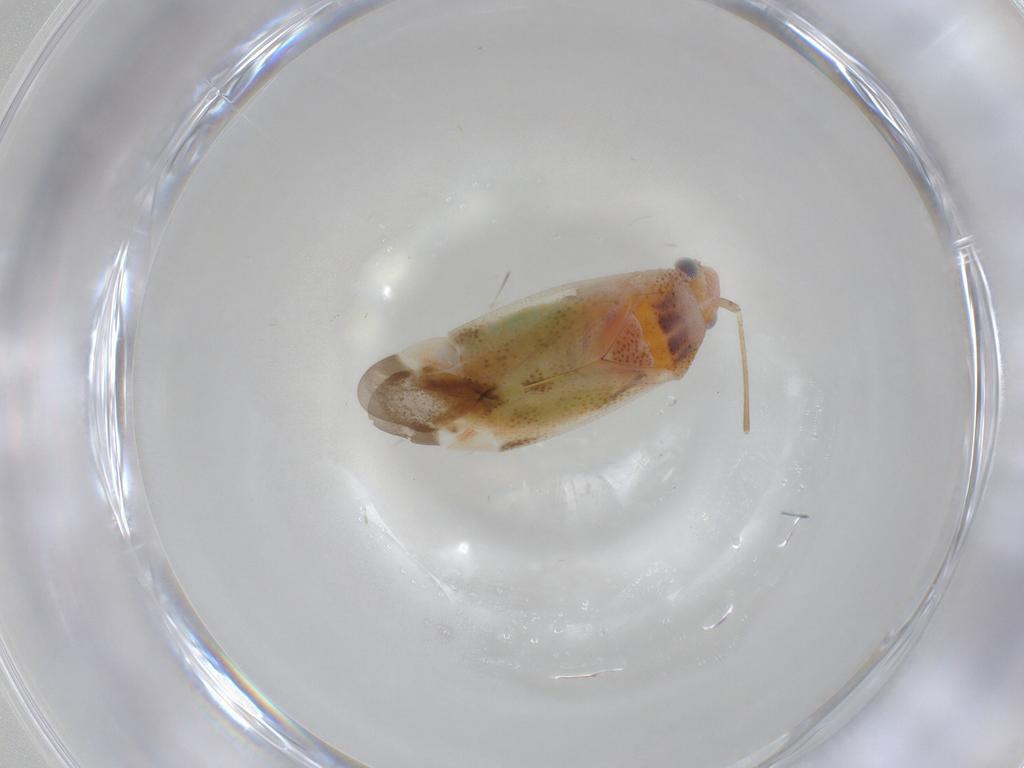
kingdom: Animalia
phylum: Arthropoda
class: Insecta
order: Hemiptera
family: Miridae
